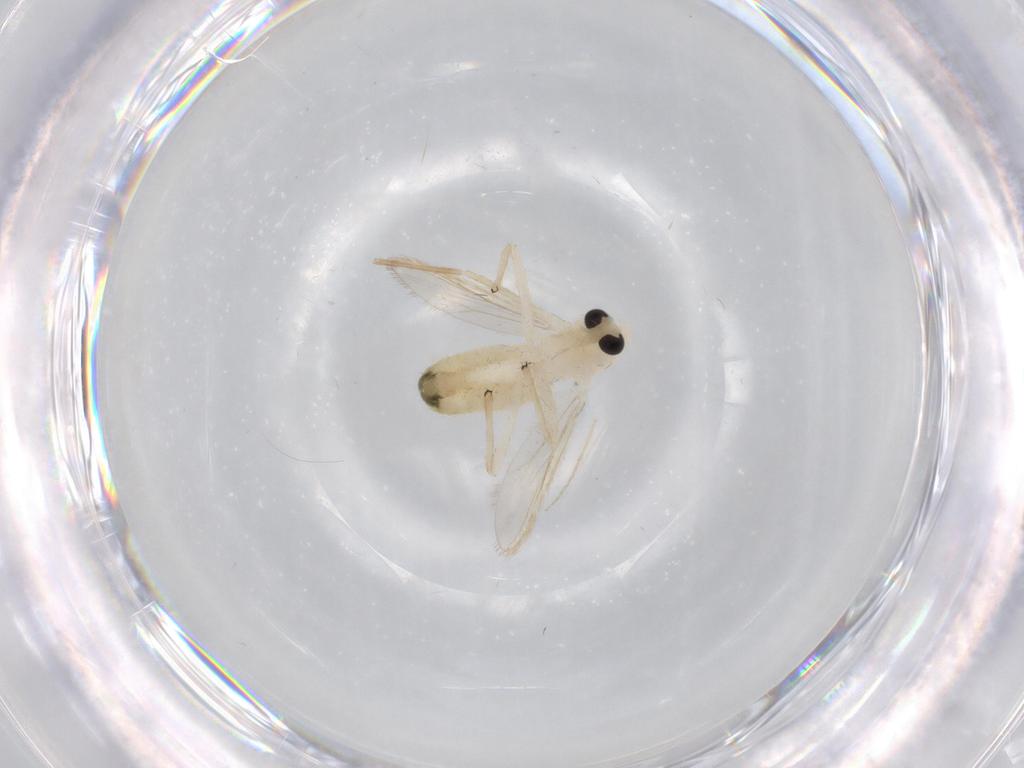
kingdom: Animalia
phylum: Arthropoda
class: Insecta
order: Diptera
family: Chironomidae
